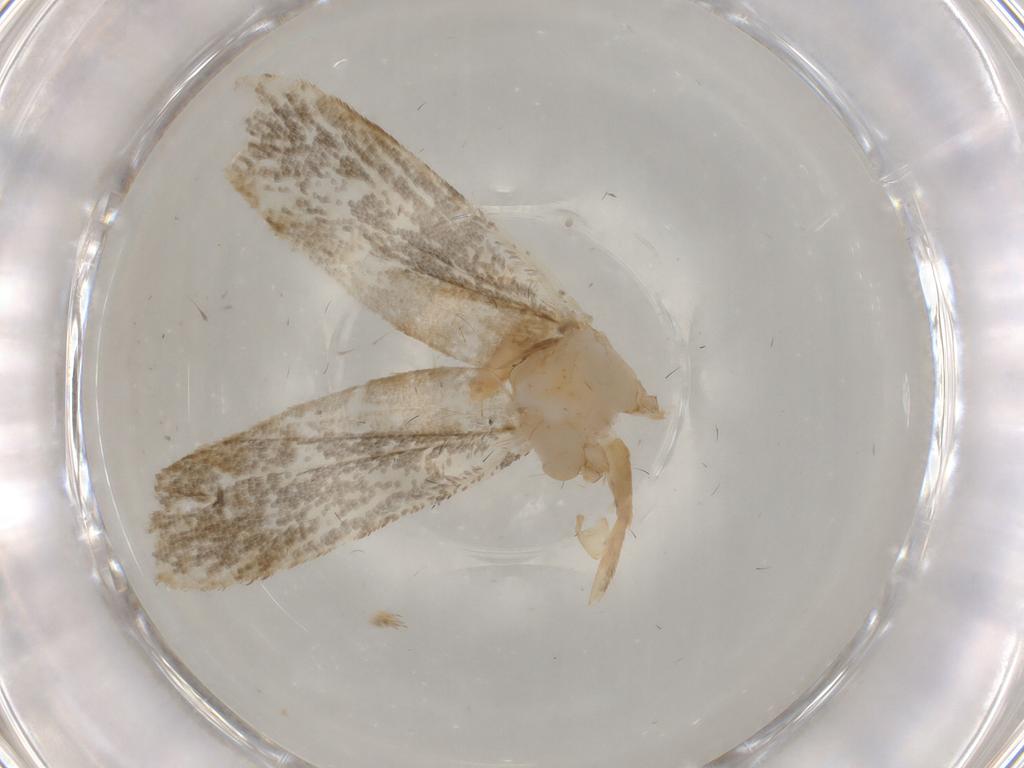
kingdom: Animalia
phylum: Arthropoda
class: Insecta
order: Lepidoptera
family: Tineidae
